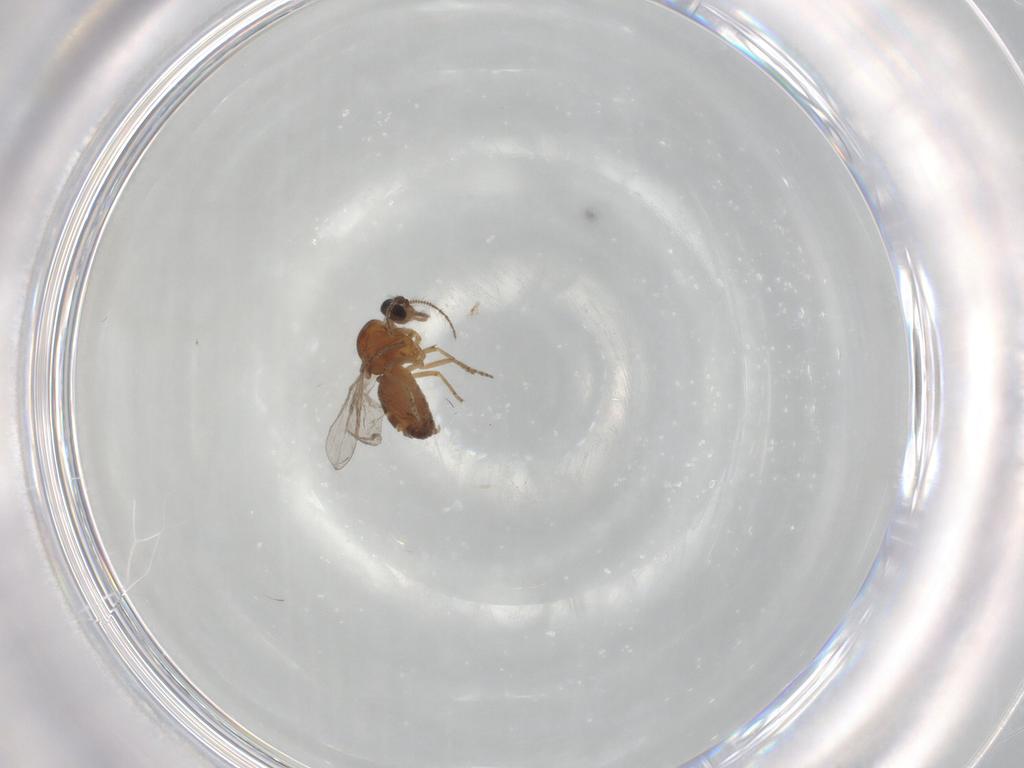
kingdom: Animalia
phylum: Arthropoda
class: Insecta
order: Diptera
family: Ceratopogonidae
